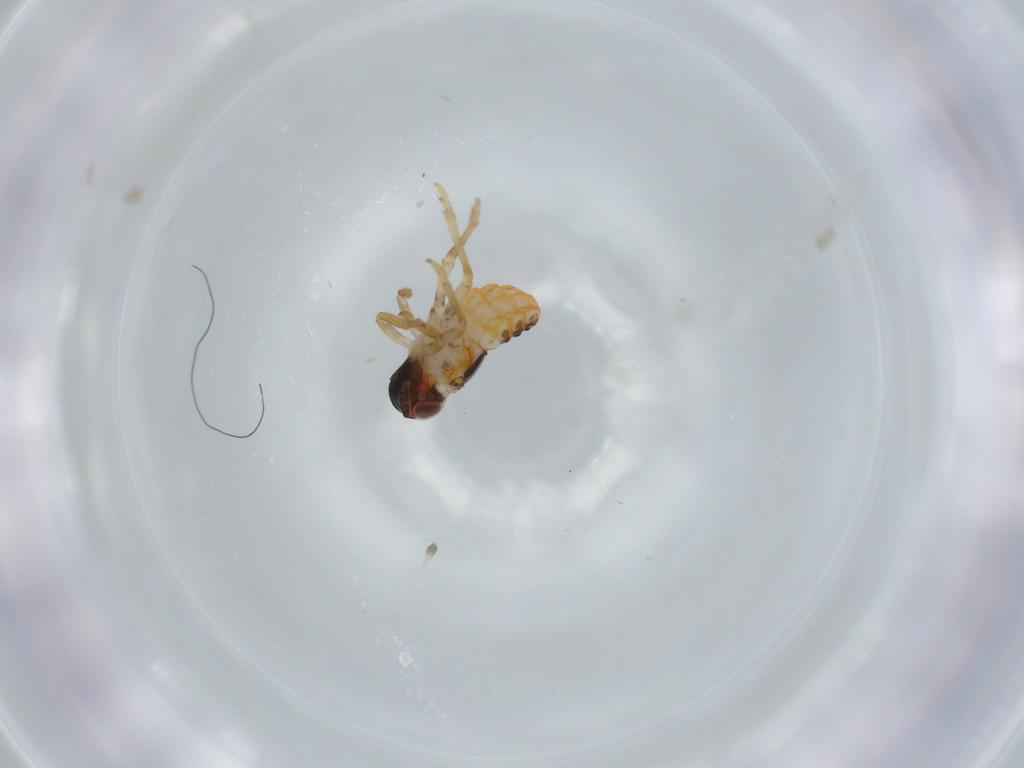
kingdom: Animalia
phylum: Arthropoda
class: Insecta
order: Hemiptera
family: Issidae
